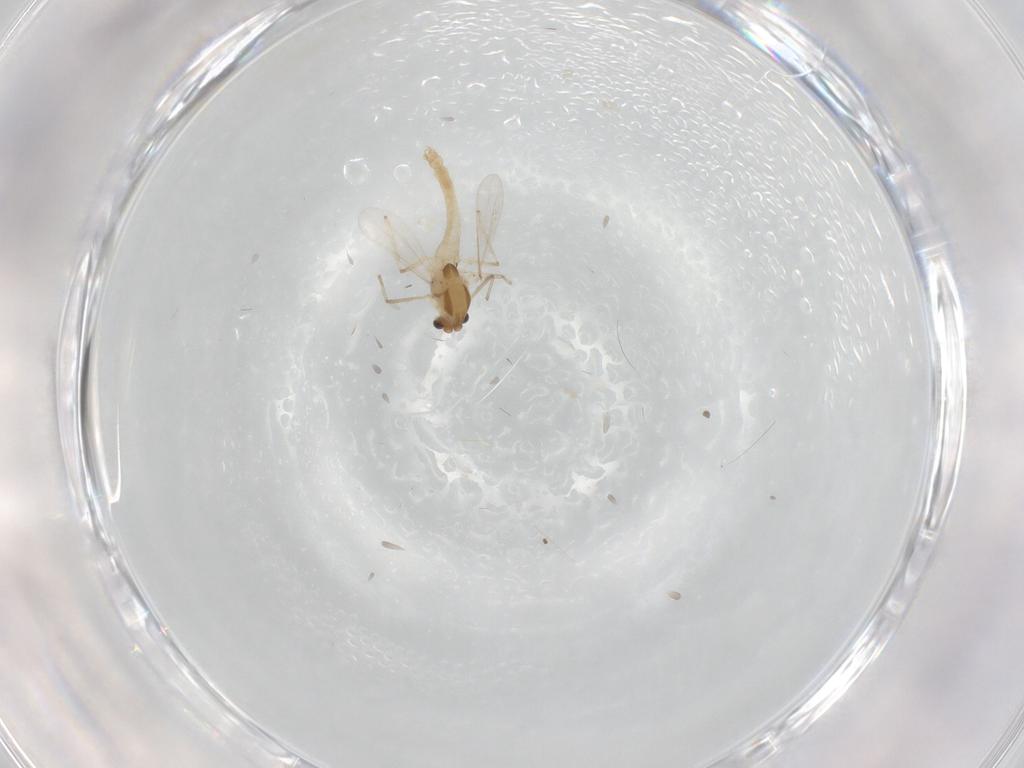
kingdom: Animalia
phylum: Arthropoda
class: Insecta
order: Diptera
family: Chironomidae
